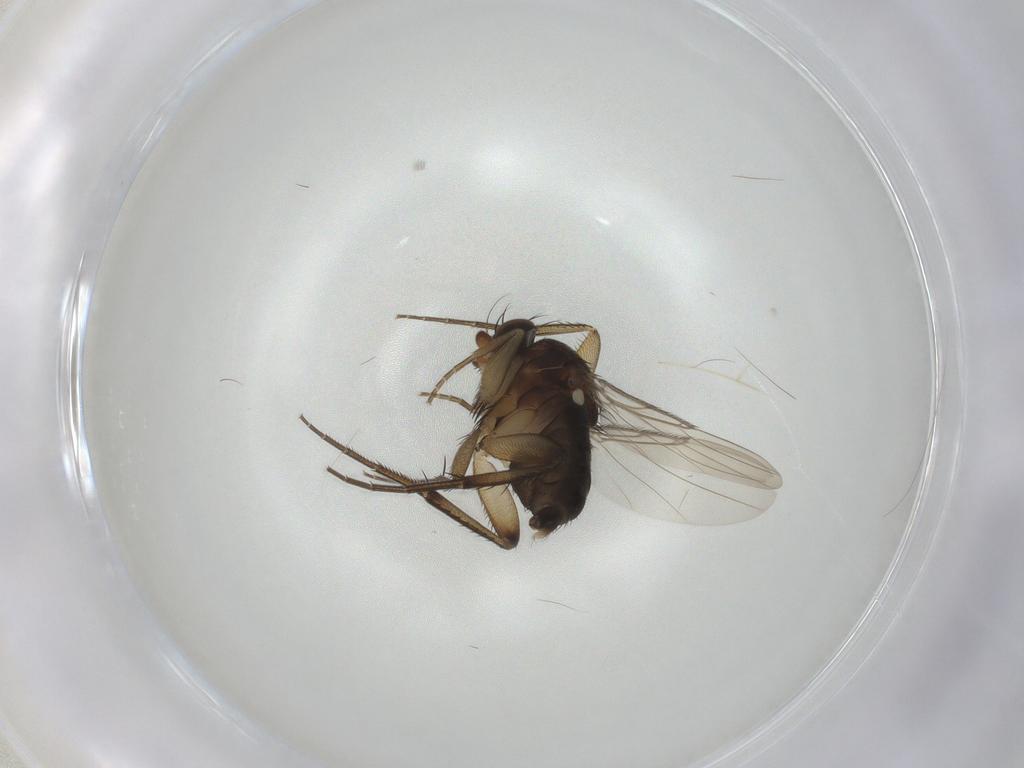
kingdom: Animalia
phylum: Arthropoda
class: Insecta
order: Diptera
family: Phoridae
